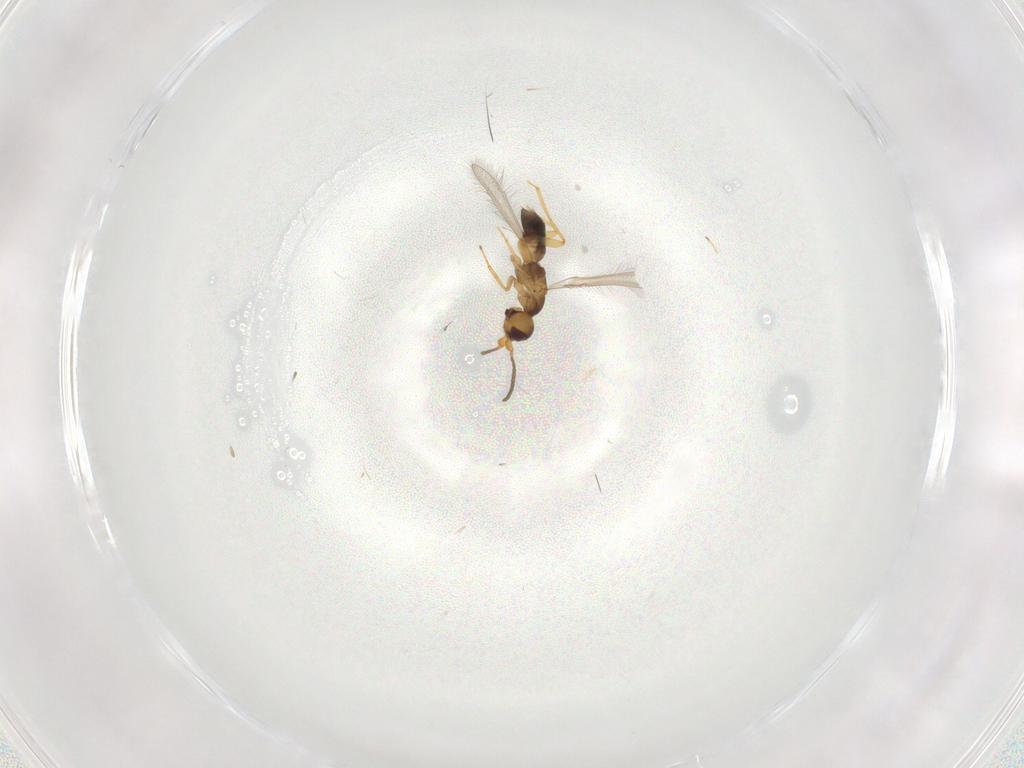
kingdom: Animalia
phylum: Arthropoda
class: Insecta
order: Hymenoptera
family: Mymaridae
